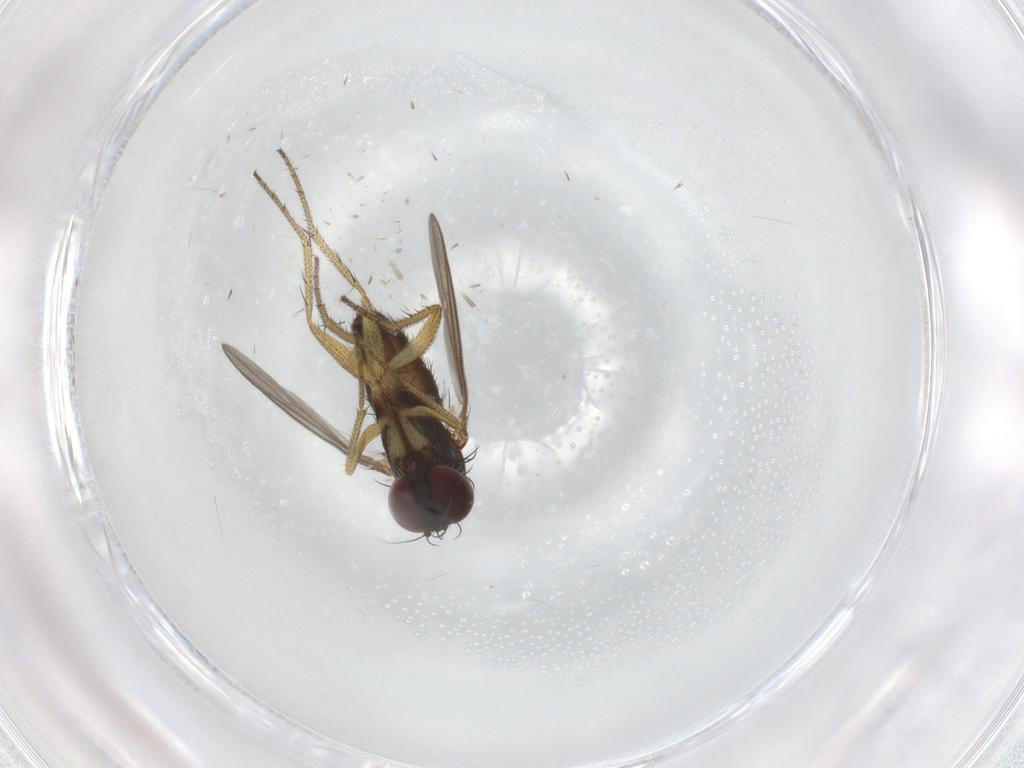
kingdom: Animalia
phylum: Arthropoda
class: Insecta
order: Diptera
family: Dolichopodidae
